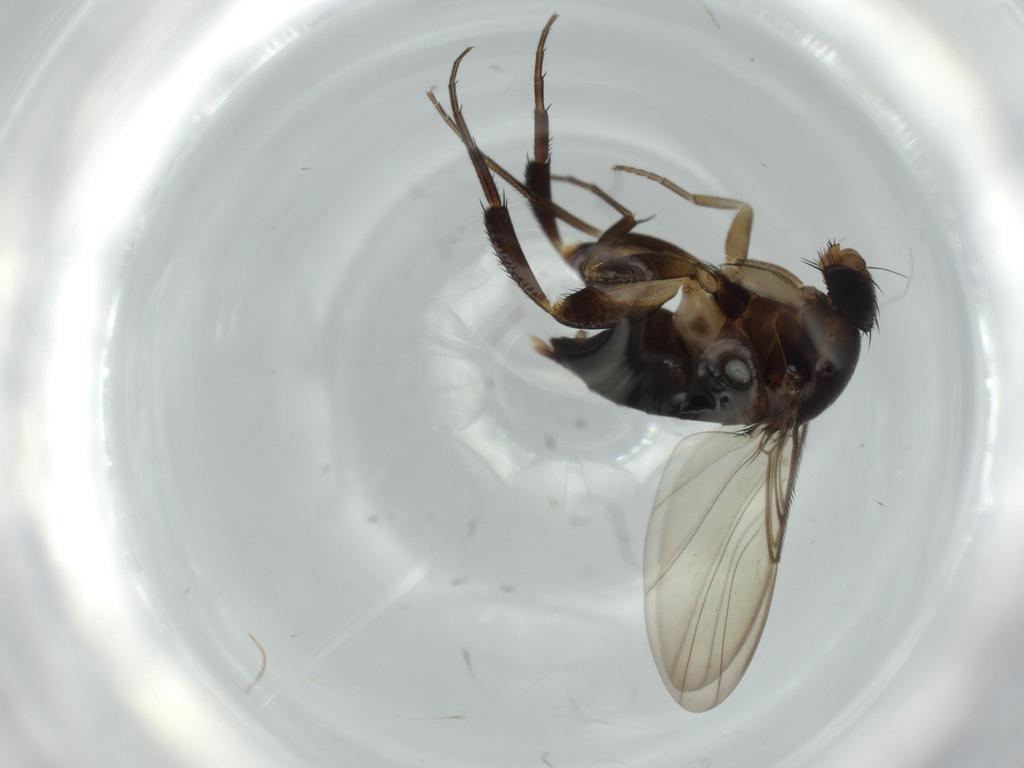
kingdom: Animalia
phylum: Arthropoda
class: Insecta
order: Diptera
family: Phoridae
